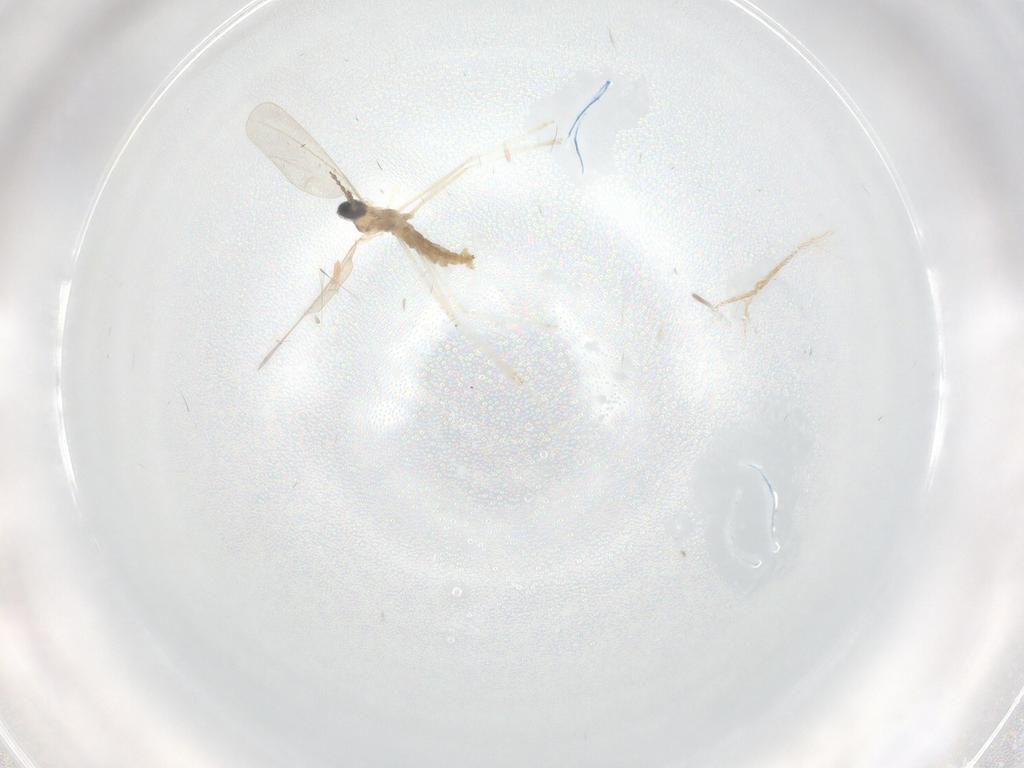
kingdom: Animalia
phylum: Arthropoda
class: Insecta
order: Diptera
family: Cecidomyiidae
